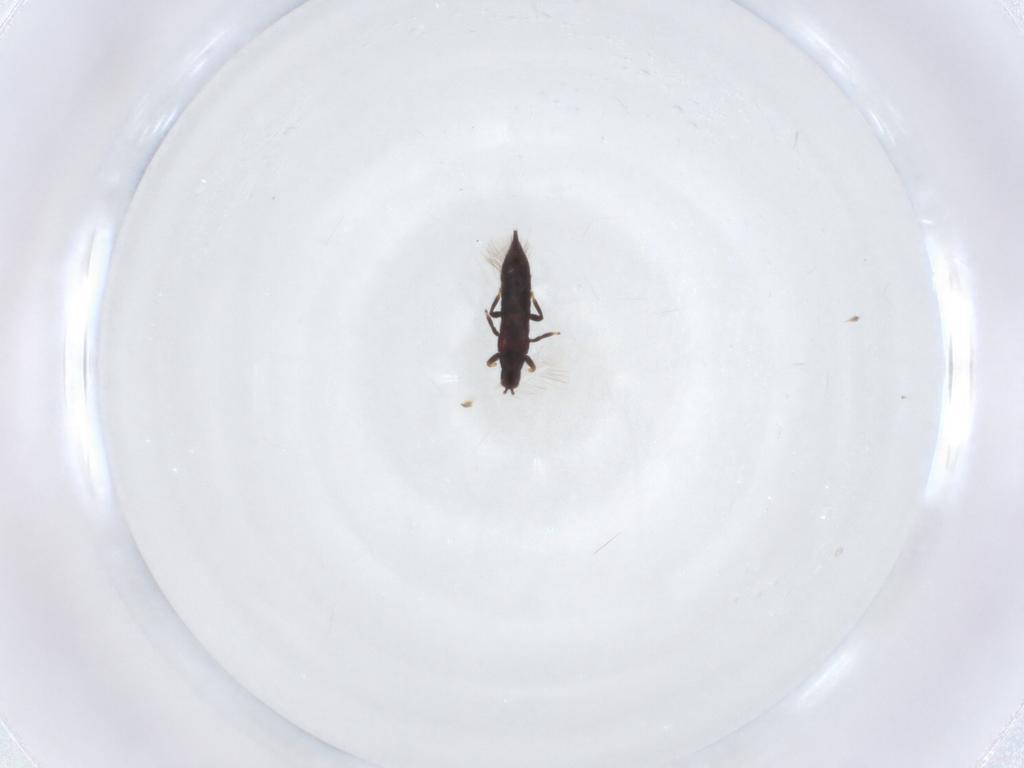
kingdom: Animalia
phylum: Arthropoda
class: Insecta
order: Thysanoptera
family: Phlaeothripidae
